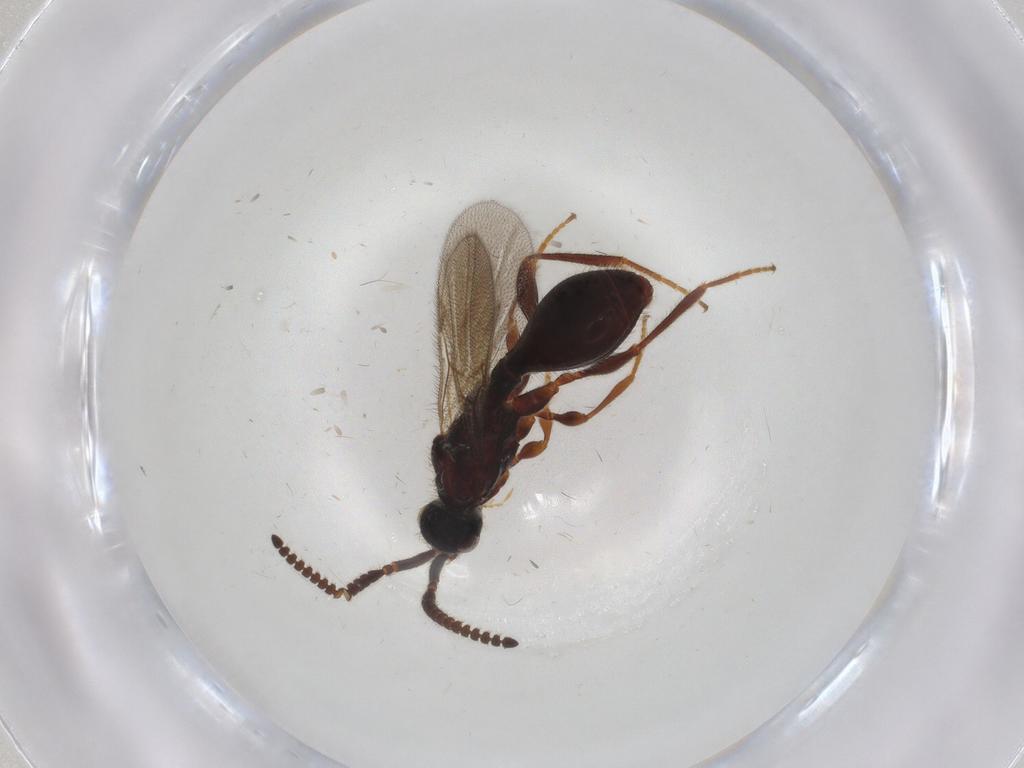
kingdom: Animalia
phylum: Arthropoda
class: Insecta
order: Hymenoptera
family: Diapriidae
